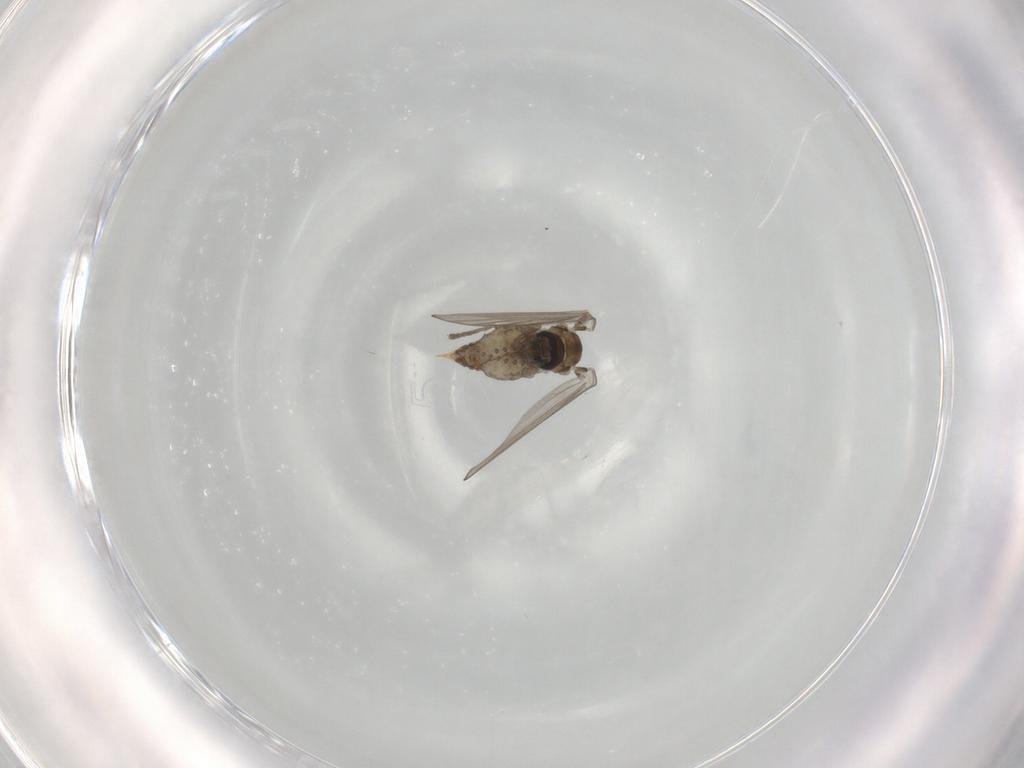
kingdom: Animalia
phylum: Arthropoda
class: Insecta
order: Diptera
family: Psychodidae
